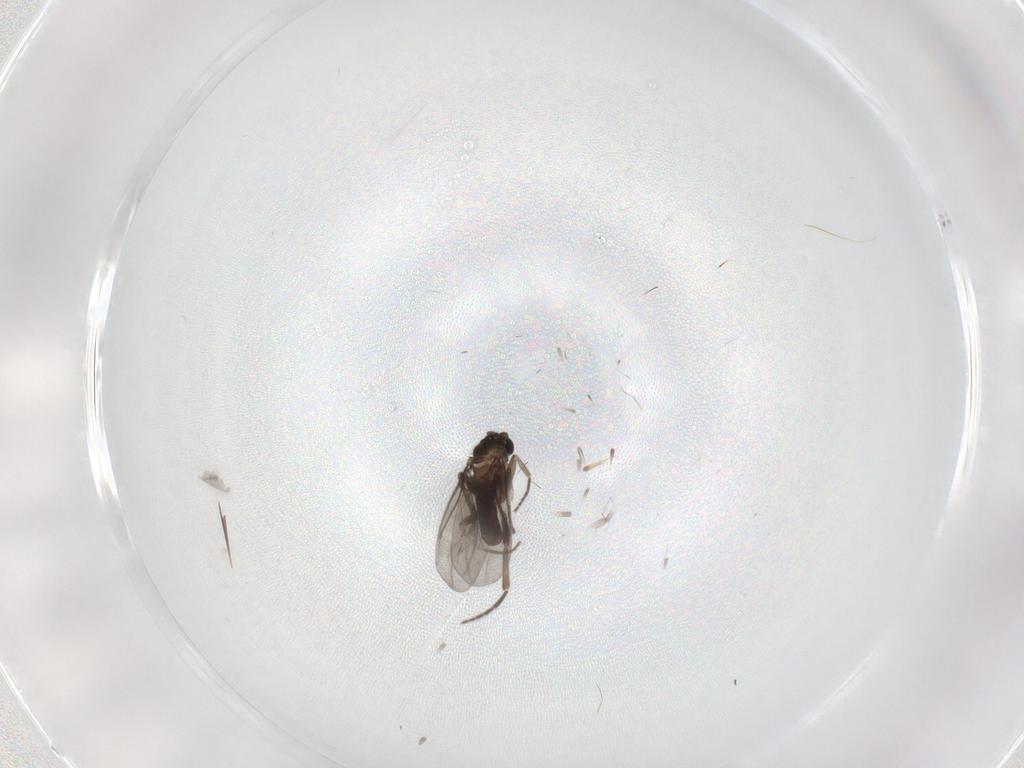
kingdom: Animalia
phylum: Arthropoda
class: Insecta
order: Diptera
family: Phoridae
